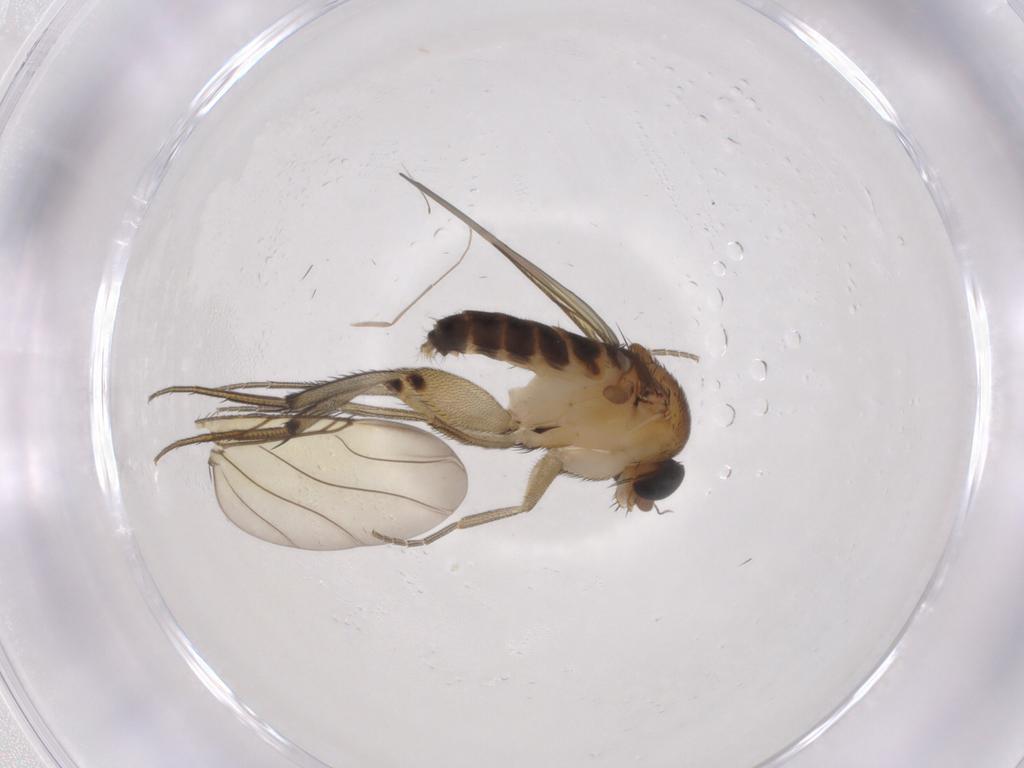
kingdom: Animalia
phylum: Arthropoda
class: Insecta
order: Diptera
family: Phoridae
